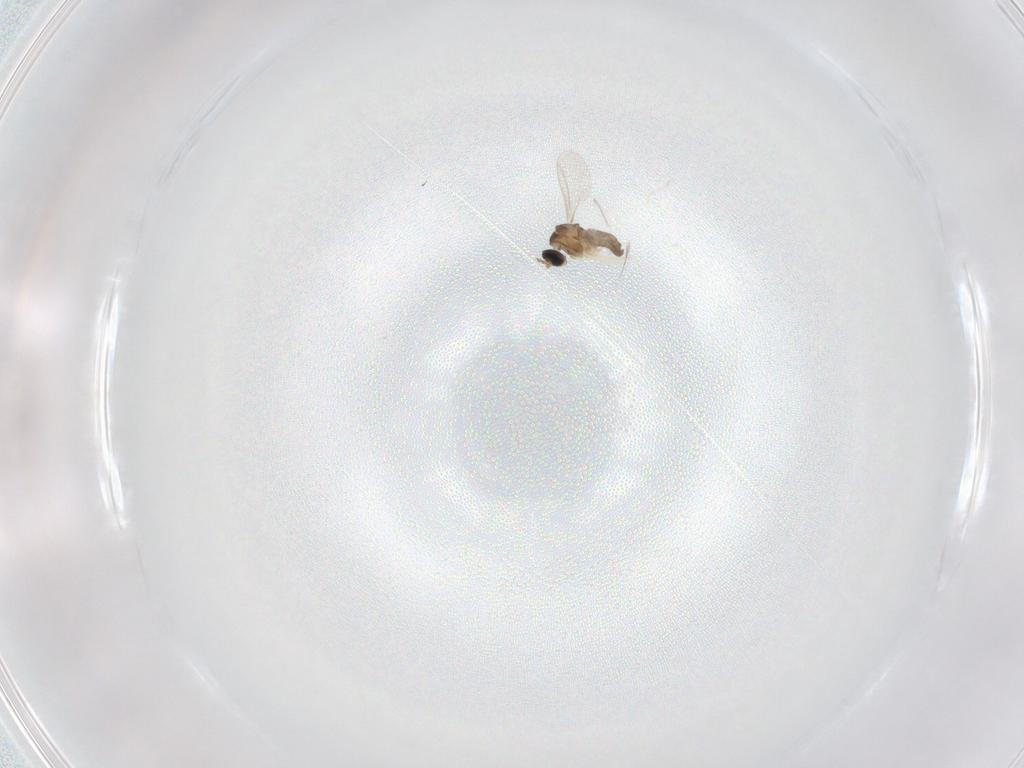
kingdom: Animalia
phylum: Arthropoda
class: Insecta
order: Diptera
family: Cecidomyiidae
